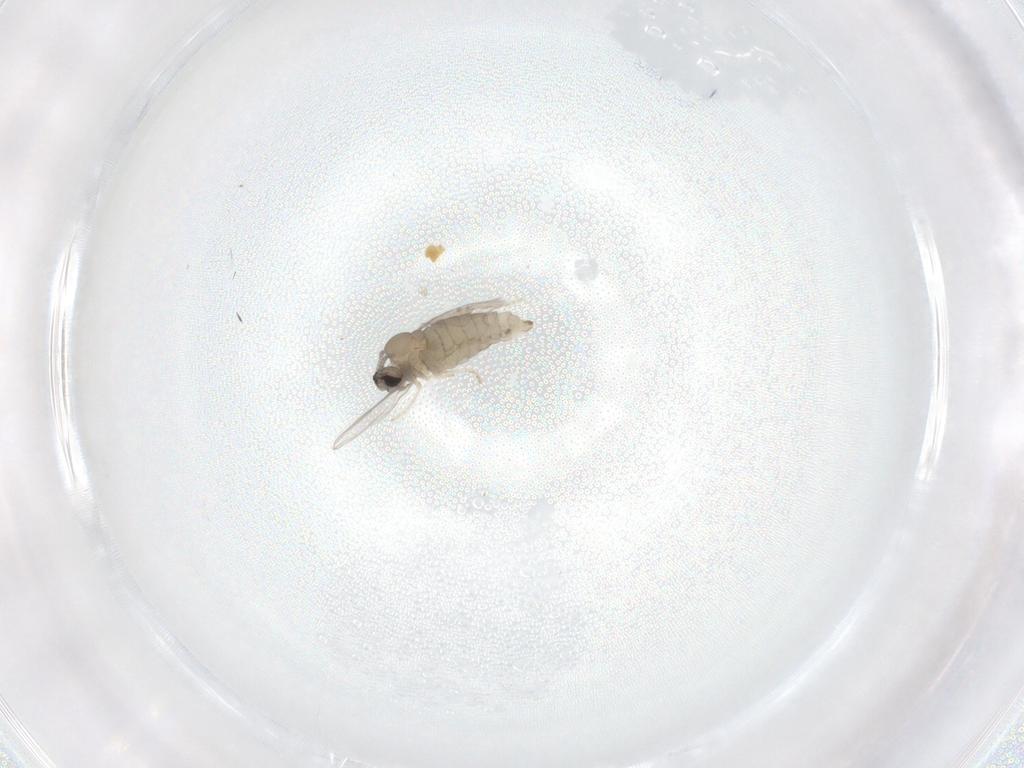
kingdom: Animalia
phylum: Arthropoda
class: Insecta
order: Diptera
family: Cecidomyiidae
